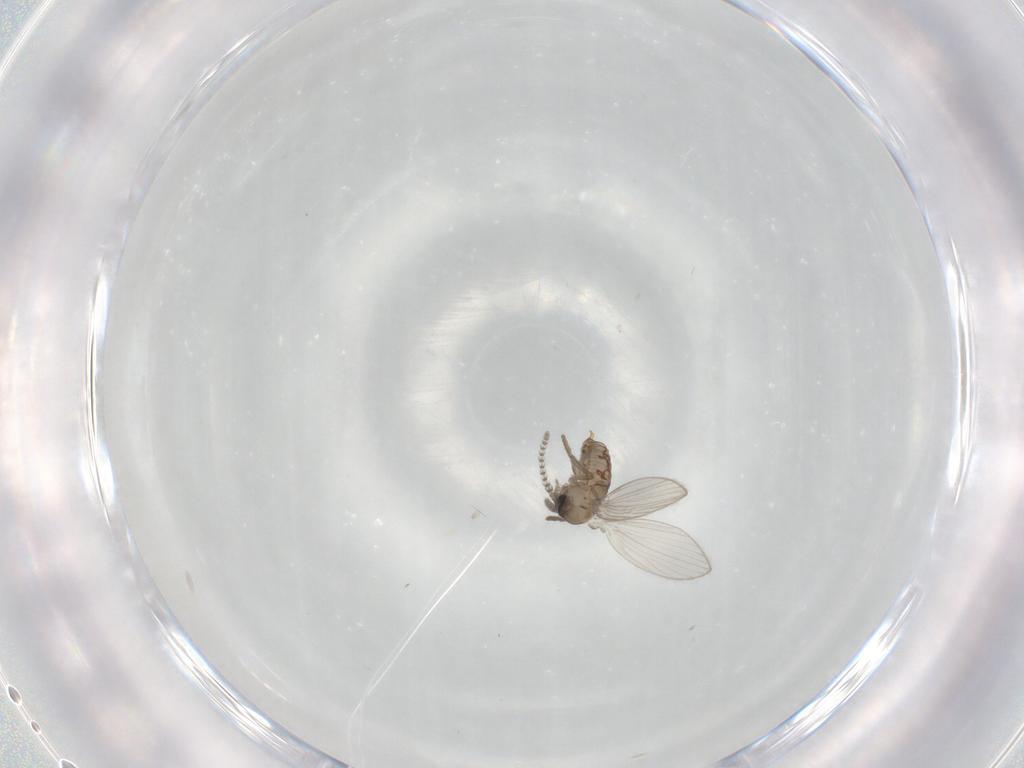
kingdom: Animalia
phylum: Arthropoda
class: Insecta
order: Diptera
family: Psychodidae
